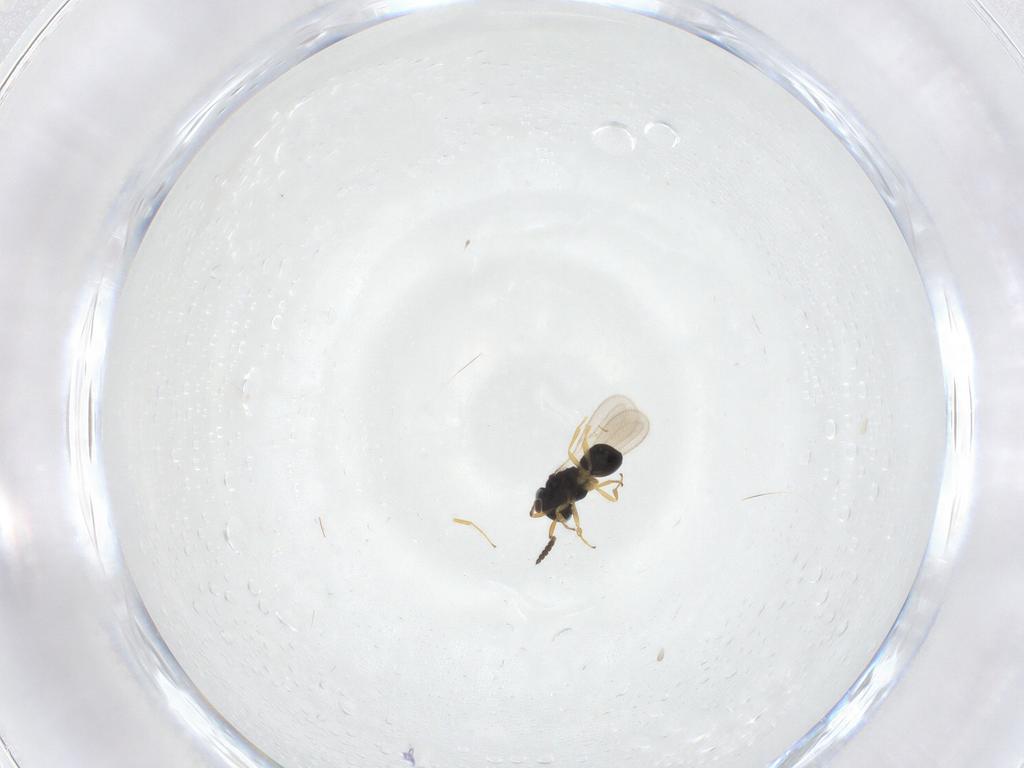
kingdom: Animalia
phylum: Arthropoda
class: Insecta
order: Hymenoptera
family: Scelionidae
